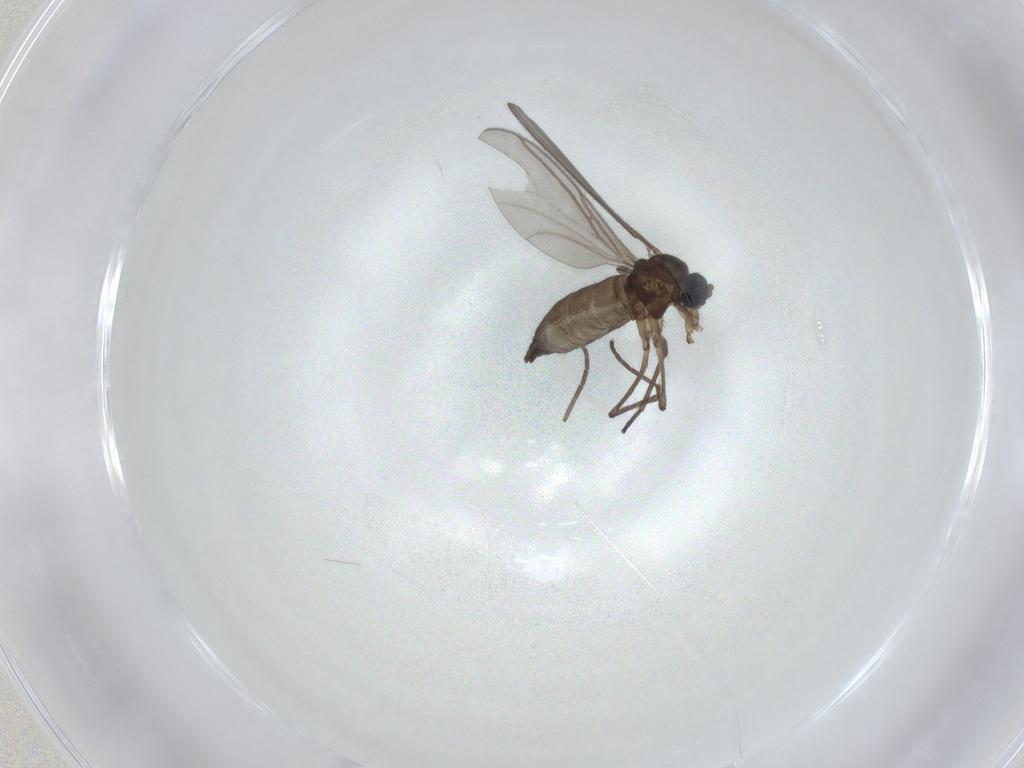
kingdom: Animalia
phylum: Arthropoda
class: Insecta
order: Diptera
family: Sciaridae
